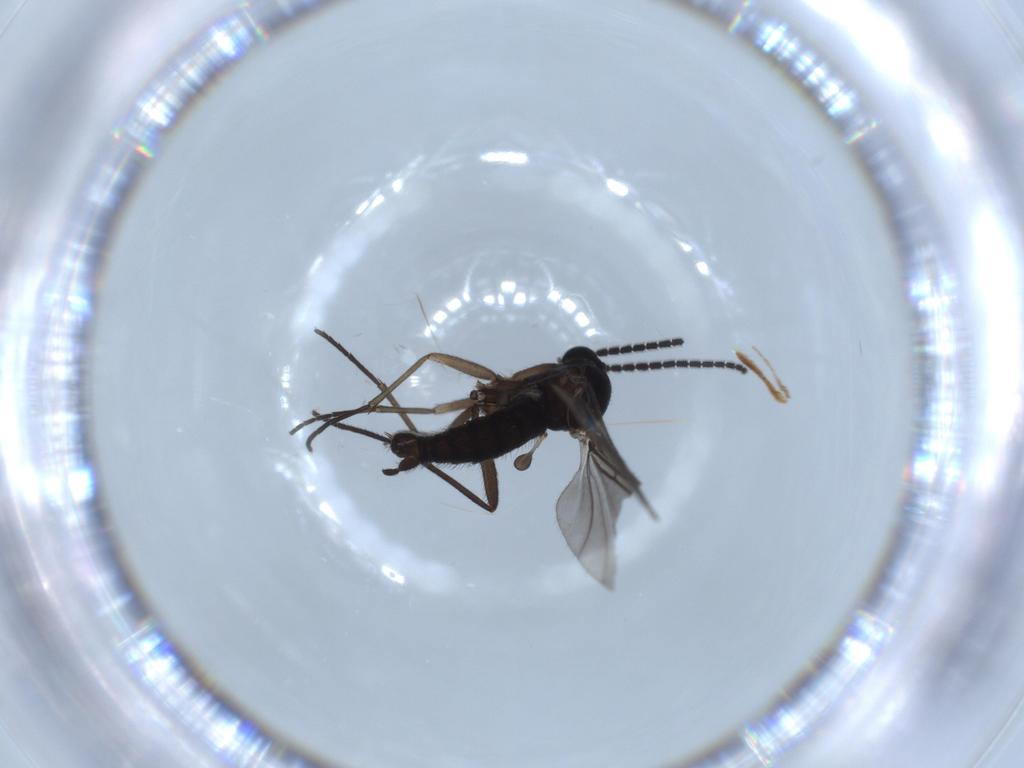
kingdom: Animalia
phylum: Arthropoda
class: Insecta
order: Diptera
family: Sciaridae
